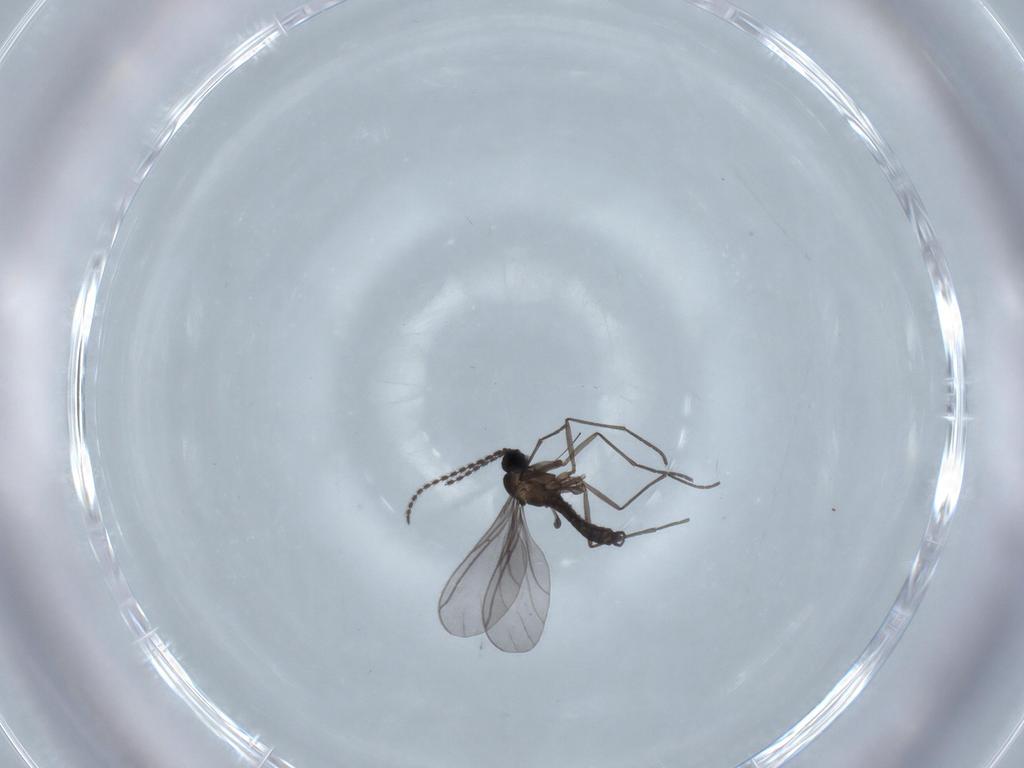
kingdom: Animalia
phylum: Arthropoda
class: Insecta
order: Diptera
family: Sciaridae
